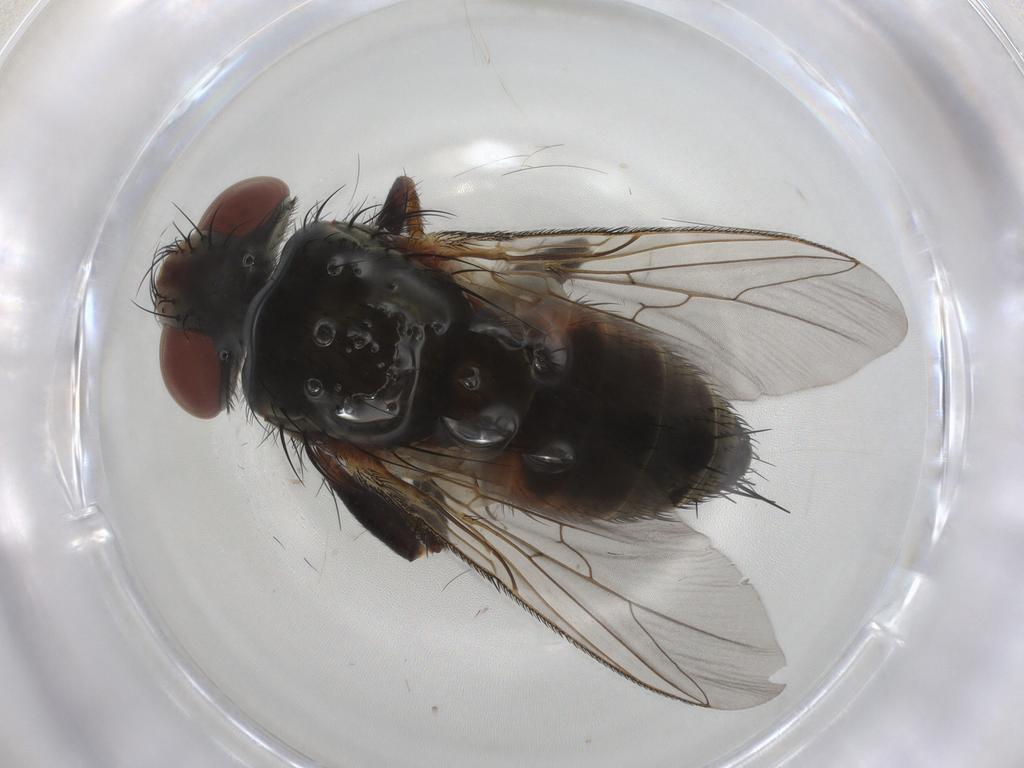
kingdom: Animalia
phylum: Arthropoda
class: Insecta
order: Diptera
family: Sarcophagidae
